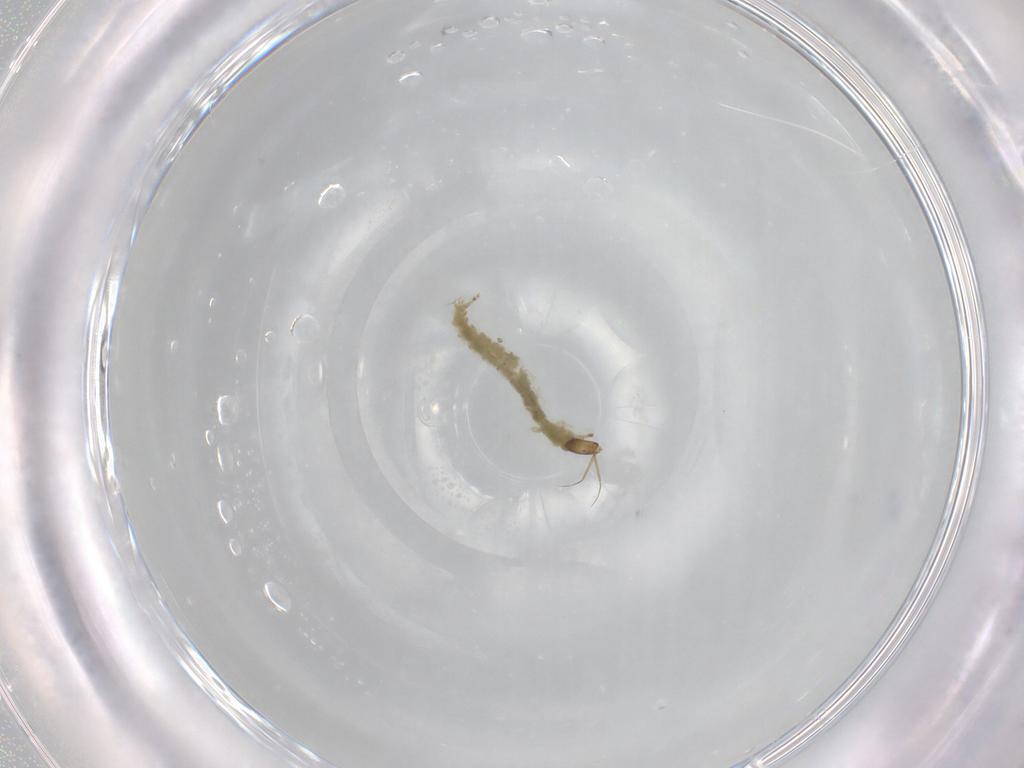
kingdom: Animalia
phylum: Arthropoda
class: Insecta
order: Diptera
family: Chironomidae
